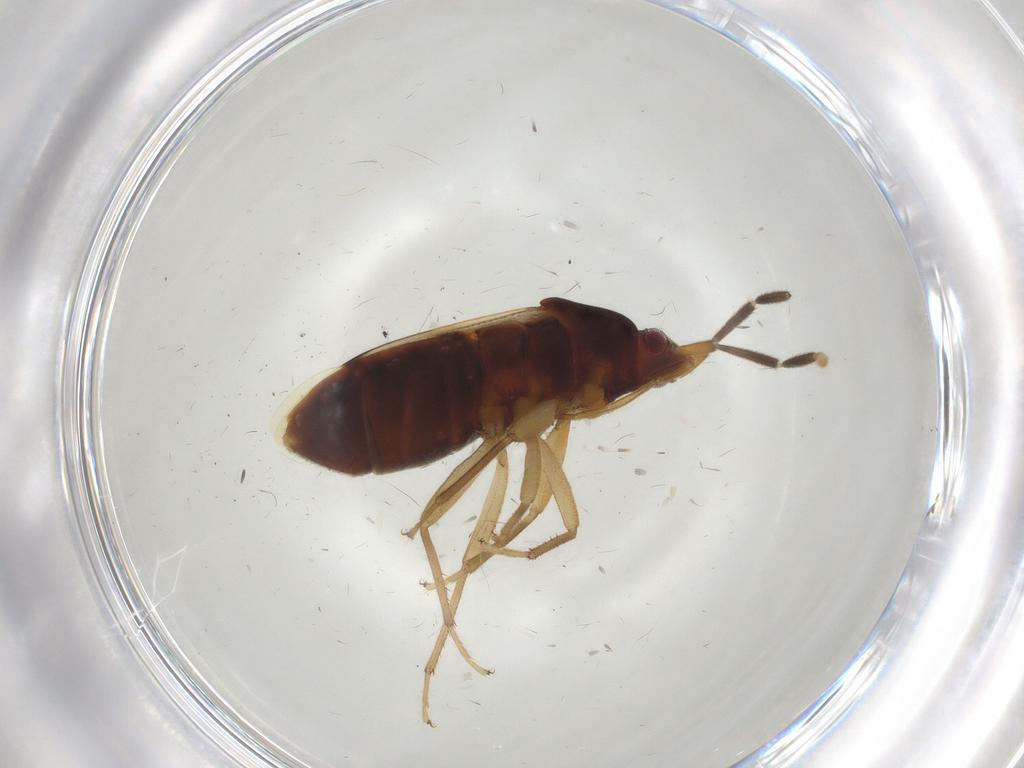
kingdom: Animalia
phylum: Arthropoda
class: Insecta
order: Hemiptera
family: Rhyparochromidae
